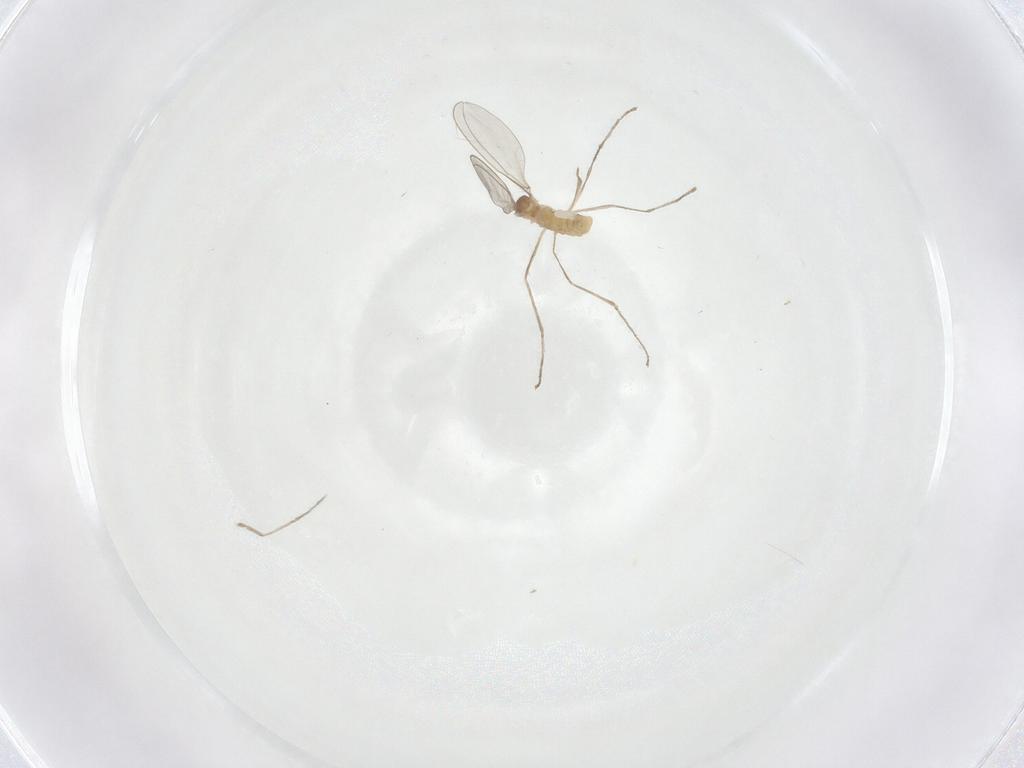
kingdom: Animalia
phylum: Arthropoda
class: Insecta
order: Diptera
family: Cecidomyiidae
